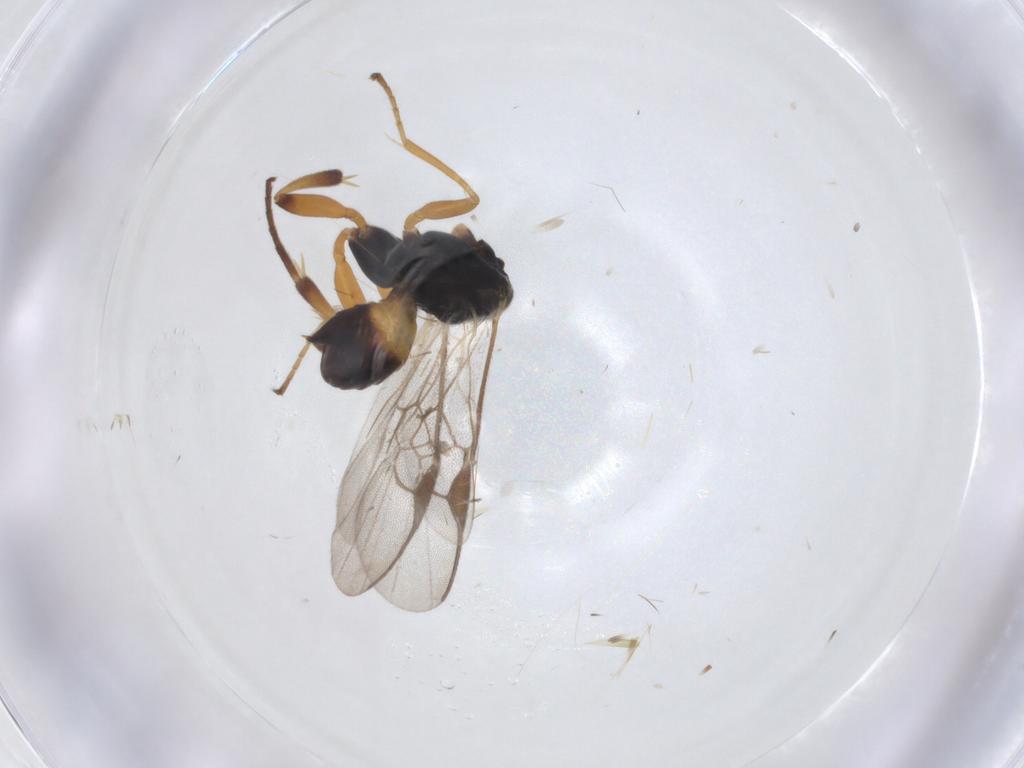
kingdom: Animalia
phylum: Arthropoda
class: Insecta
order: Hymenoptera
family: Braconidae
